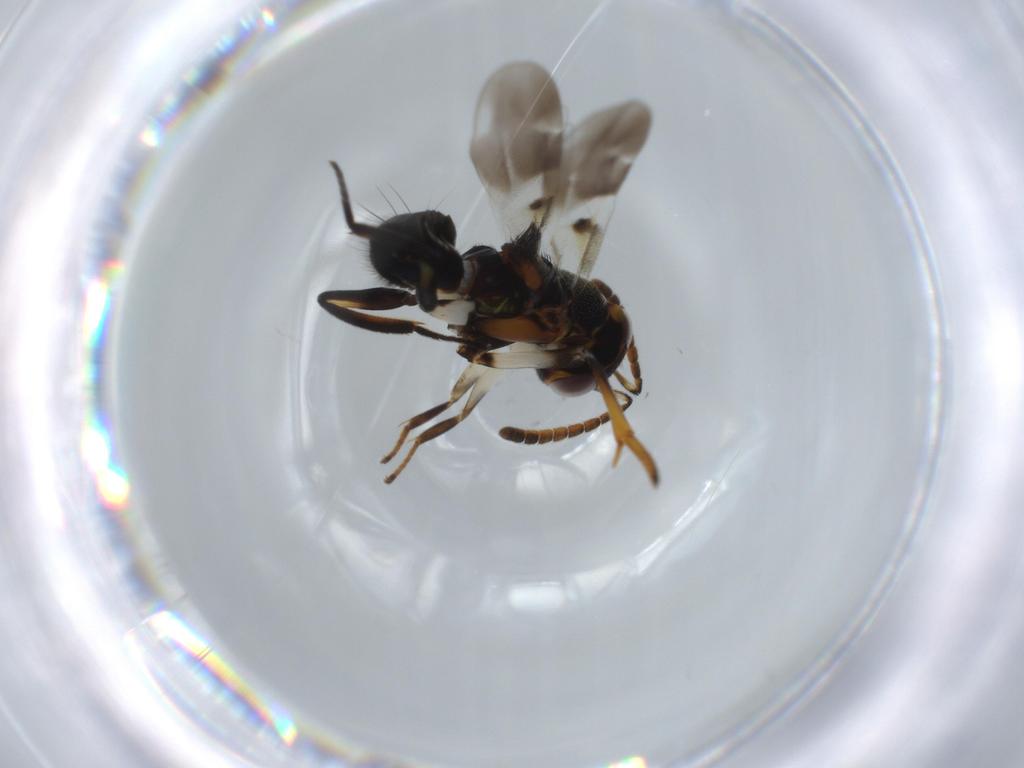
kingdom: Animalia
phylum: Arthropoda
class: Insecta
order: Hymenoptera
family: Encyrtidae
